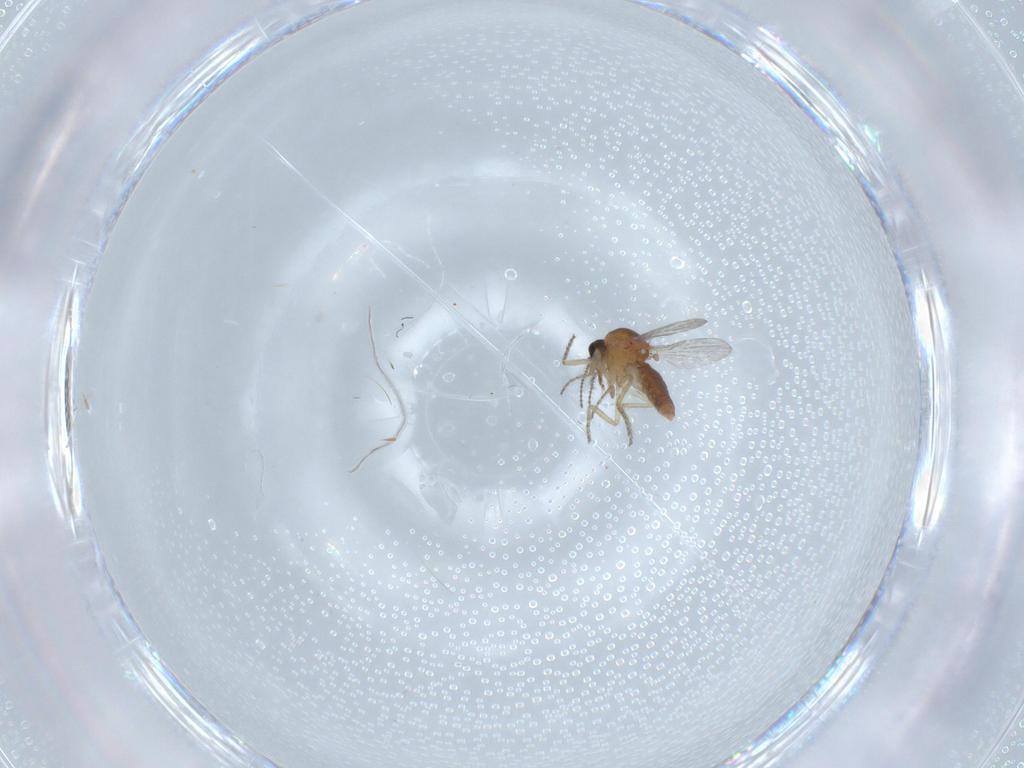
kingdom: Animalia
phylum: Arthropoda
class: Insecta
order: Diptera
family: Ceratopogonidae
